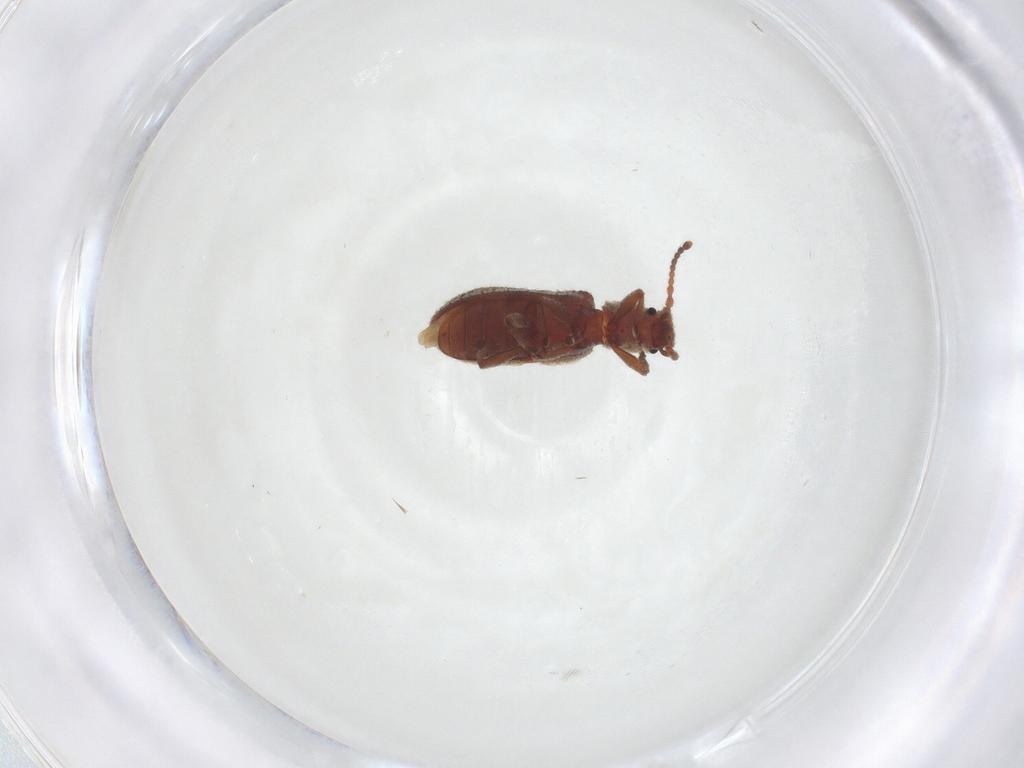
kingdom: Animalia
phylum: Arthropoda
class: Insecta
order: Coleoptera
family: Zopheridae
